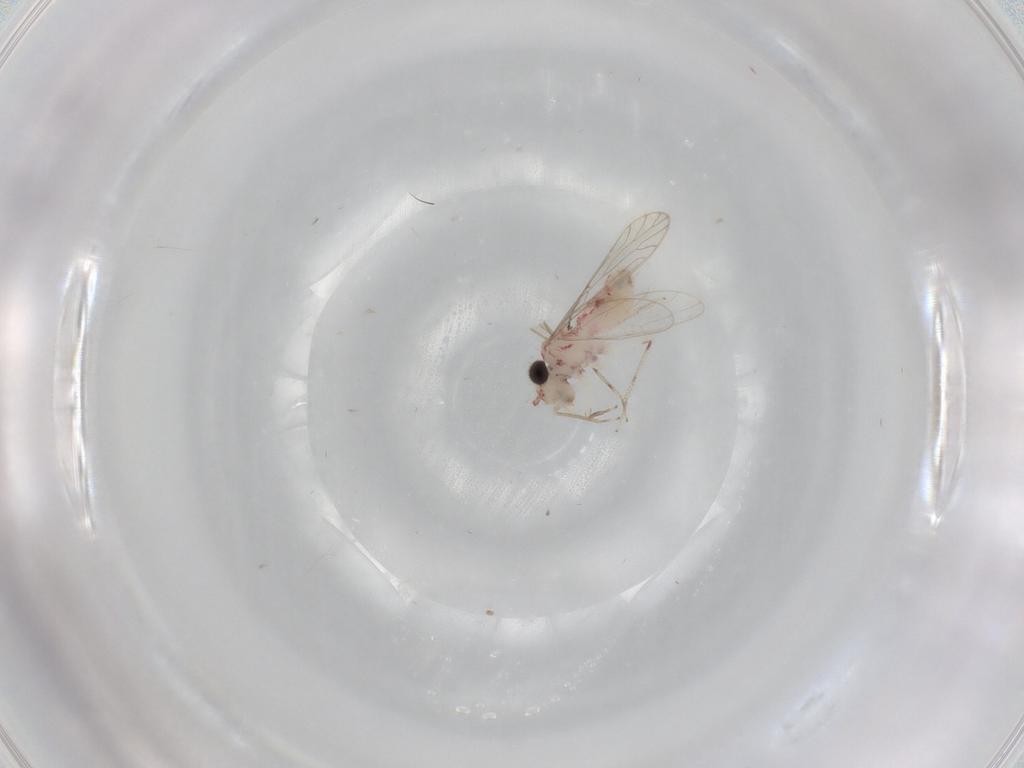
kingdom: Animalia
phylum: Arthropoda
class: Insecta
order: Psocodea
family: Caeciliusidae
